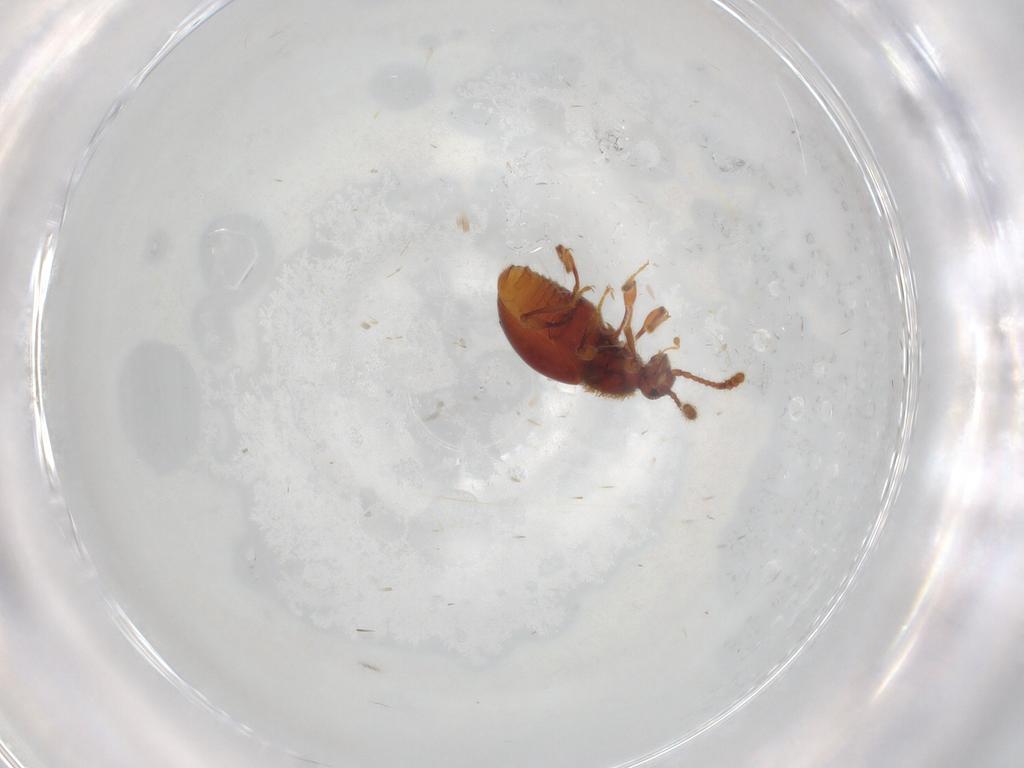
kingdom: Animalia
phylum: Arthropoda
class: Insecta
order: Coleoptera
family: Staphylinidae
